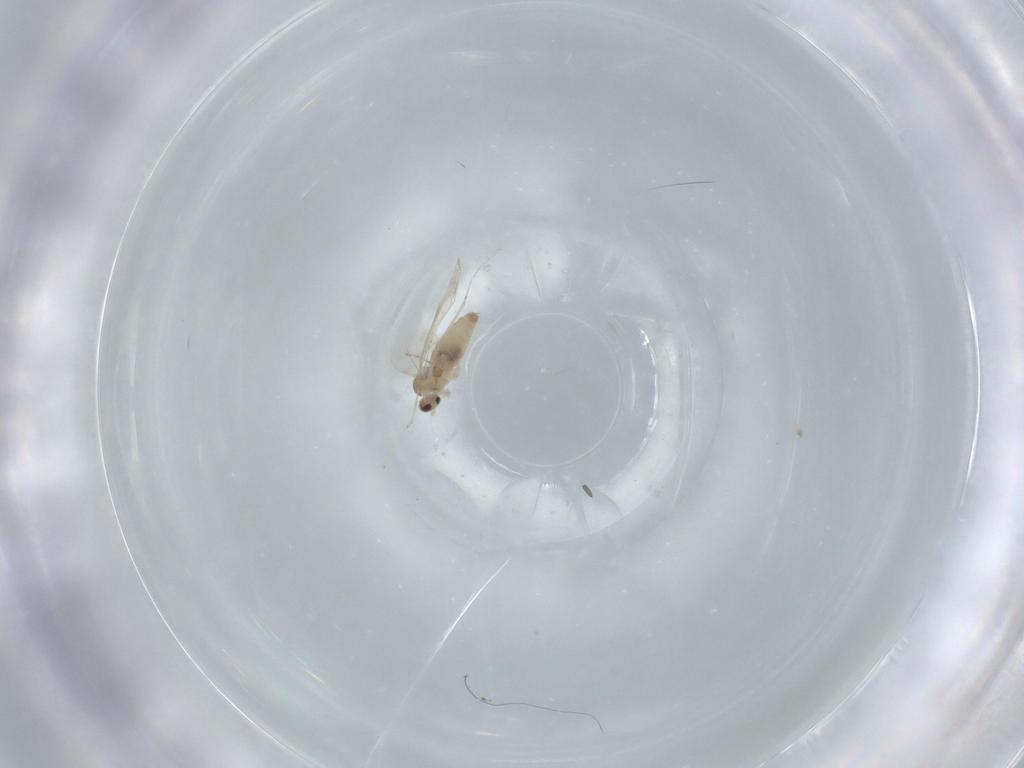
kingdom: Animalia
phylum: Arthropoda
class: Insecta
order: Diptera
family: Cecidomyiidae
